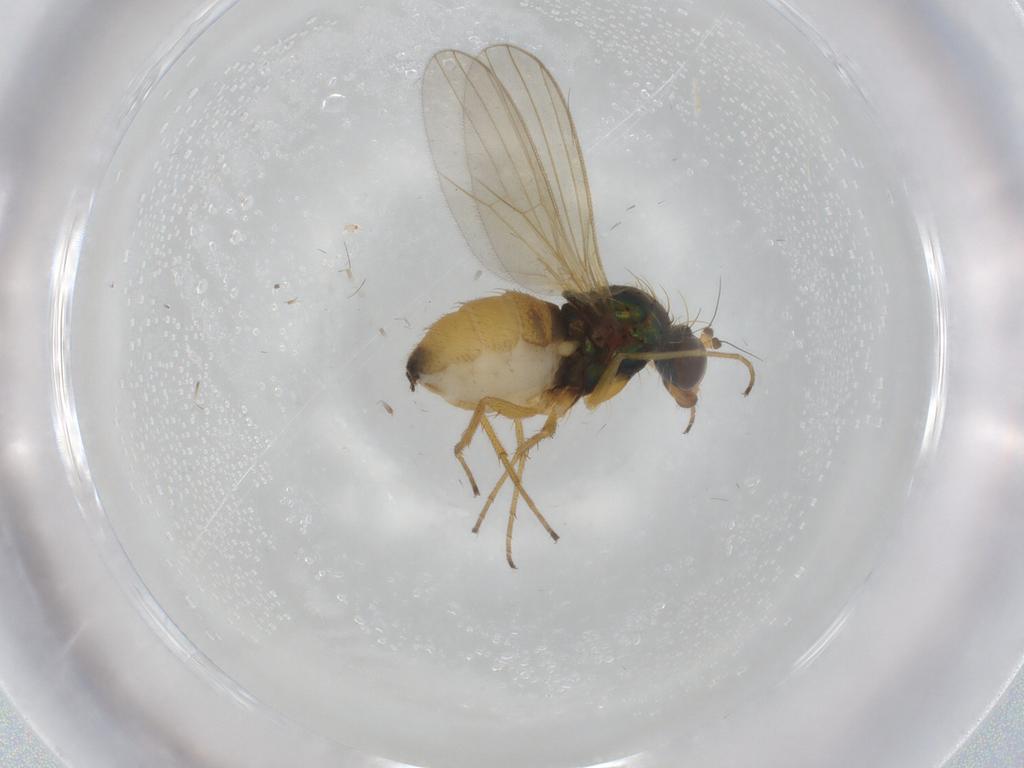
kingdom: Animalia
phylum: Arthropoda
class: Insecta
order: Diptera
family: Dolichopodidae
